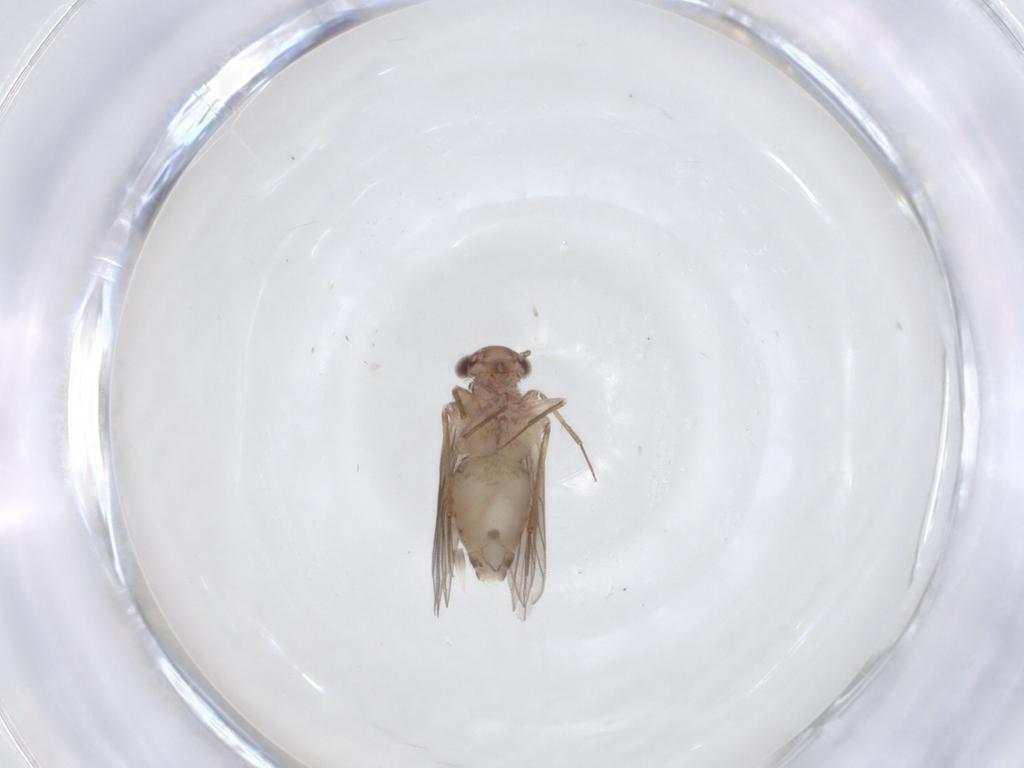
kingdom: Animalia
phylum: Arthropoda
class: Insecta
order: Psocodea
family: Lepidopsocidae
